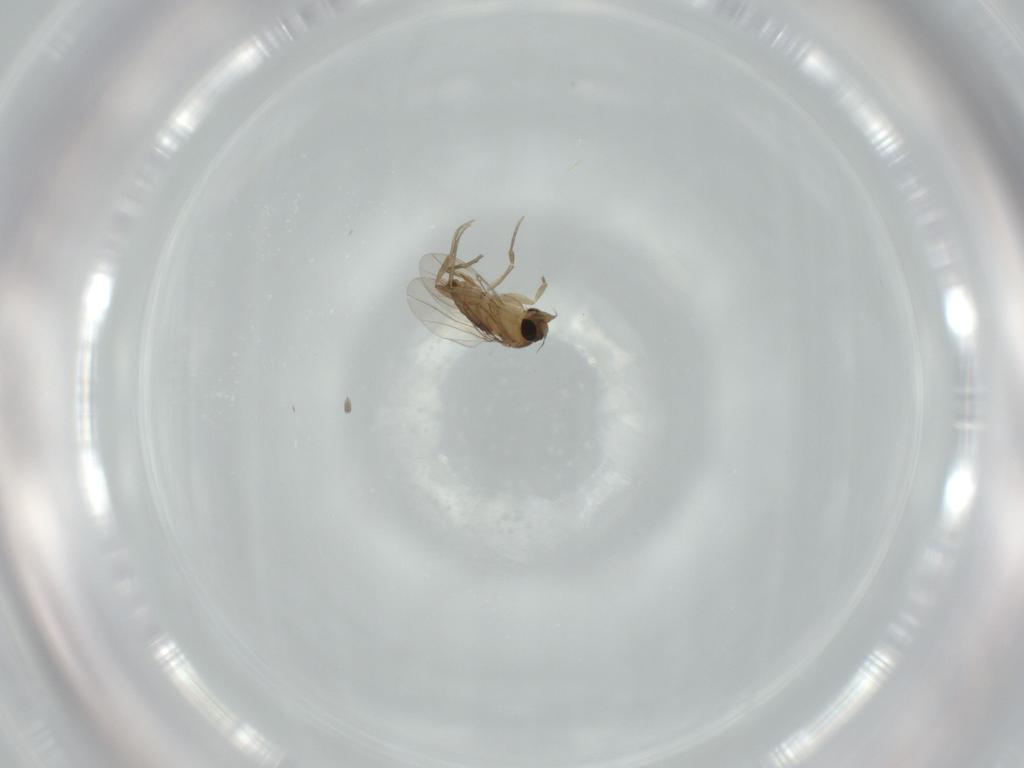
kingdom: Animalia
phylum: Arthropoda
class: Insecta
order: Diptera
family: Phoridae
